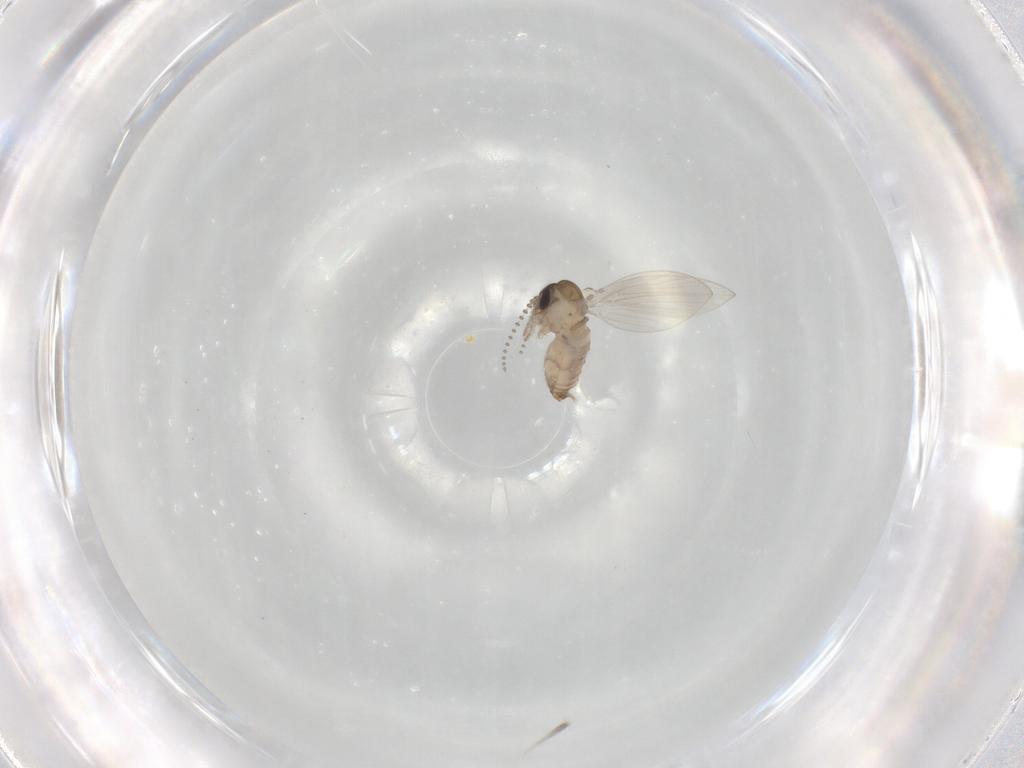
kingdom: Animalia
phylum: Arthropoda
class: Insecta
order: Diptera
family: Psychodidae
